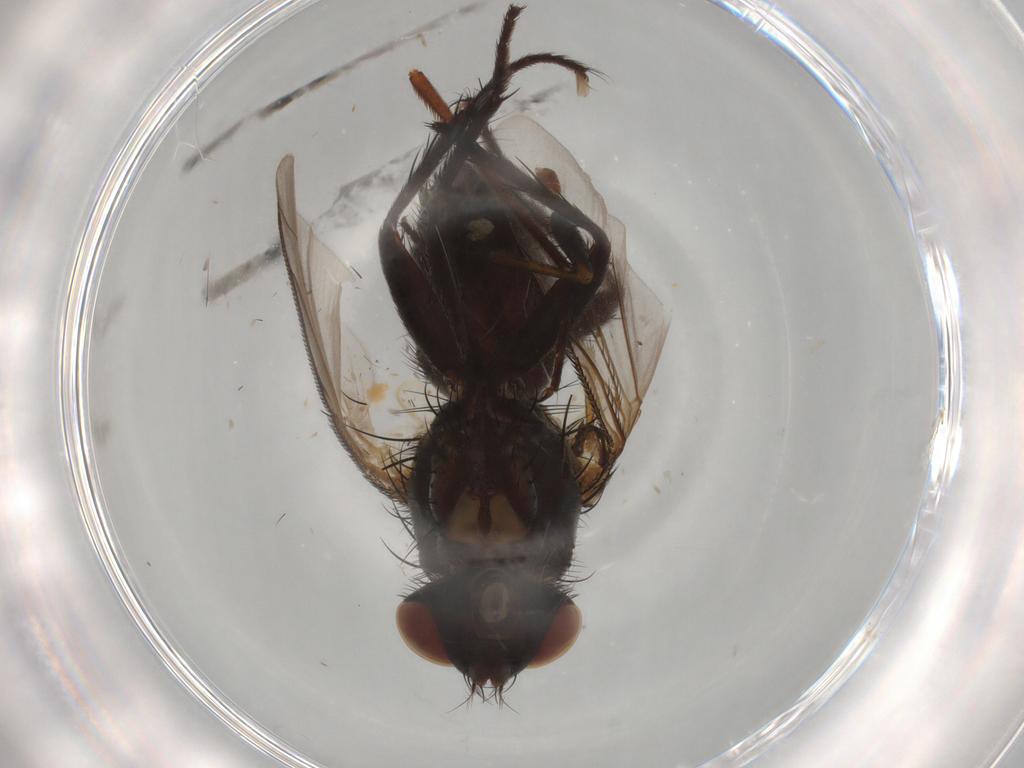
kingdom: Animalia
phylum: Arthropoda
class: Insecta
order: Diptera
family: Sarcophagidae
